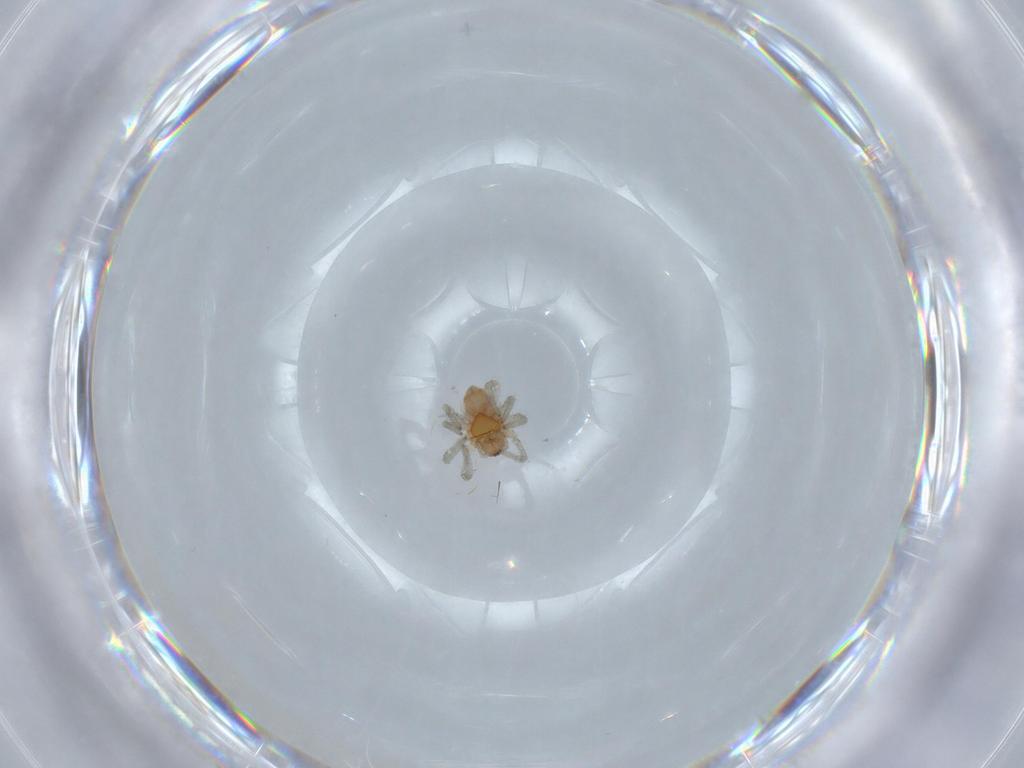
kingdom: Animalia
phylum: Arthropoda
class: Arachnida
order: Araneae
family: Dictynidae
